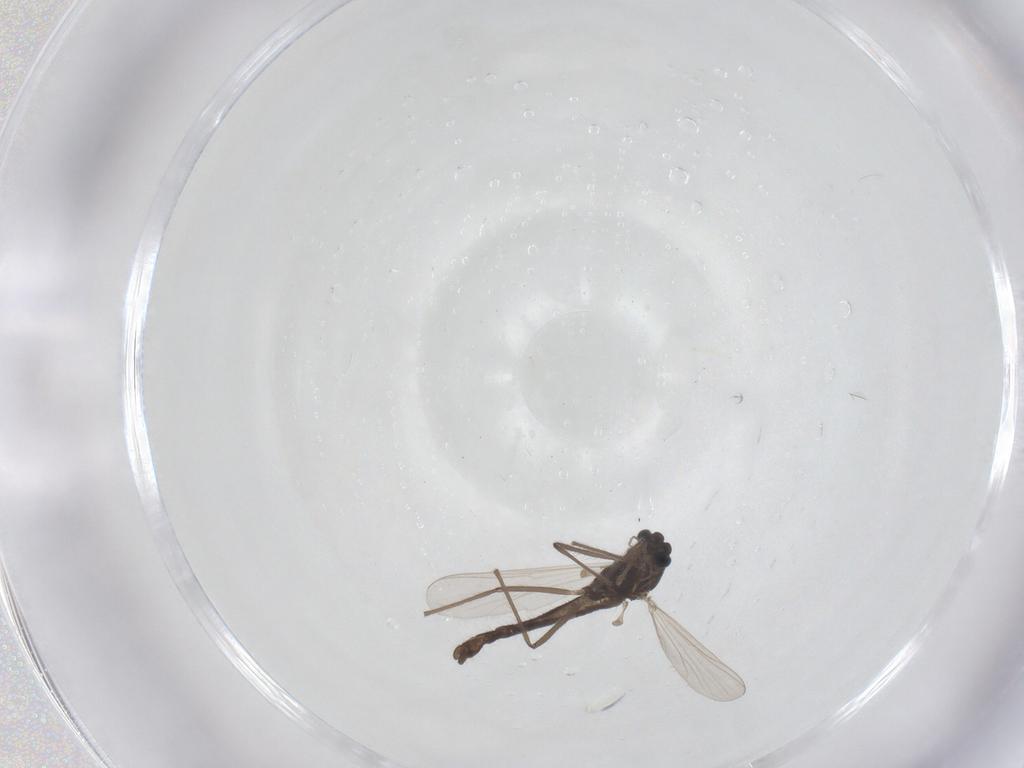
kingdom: Animalia
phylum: Arthropoda
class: Insecta
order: Diptera
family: Chironomidae
